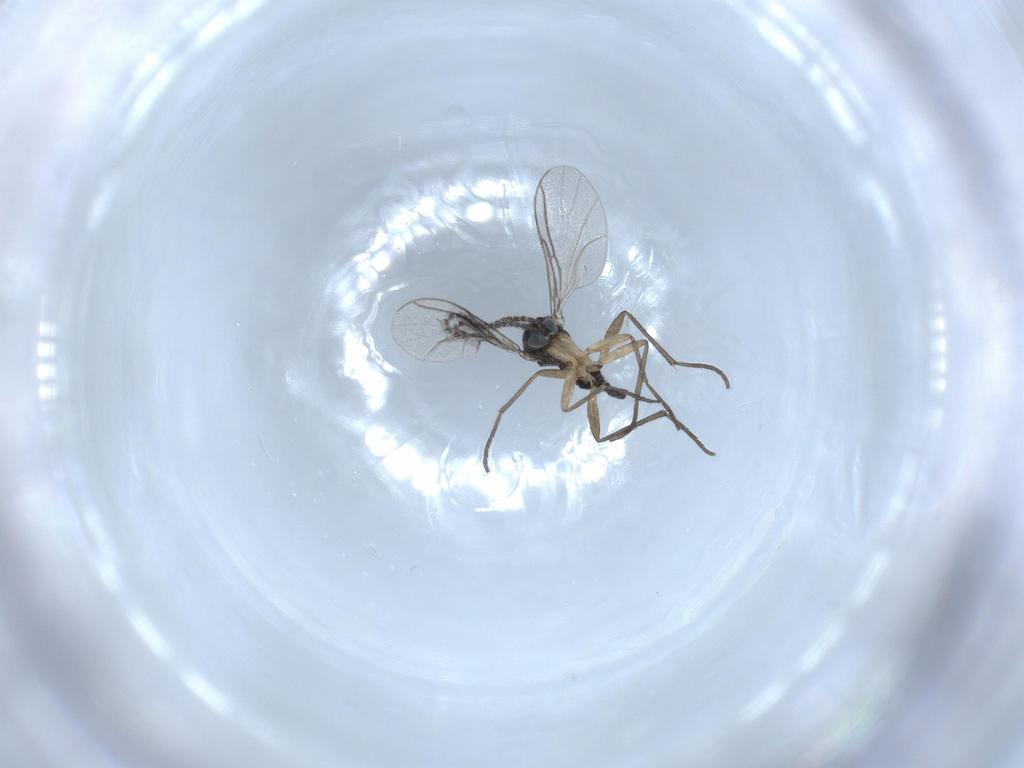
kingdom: Animalia
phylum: Arthropoda
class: Insecta
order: Diptera
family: Sciaridae
